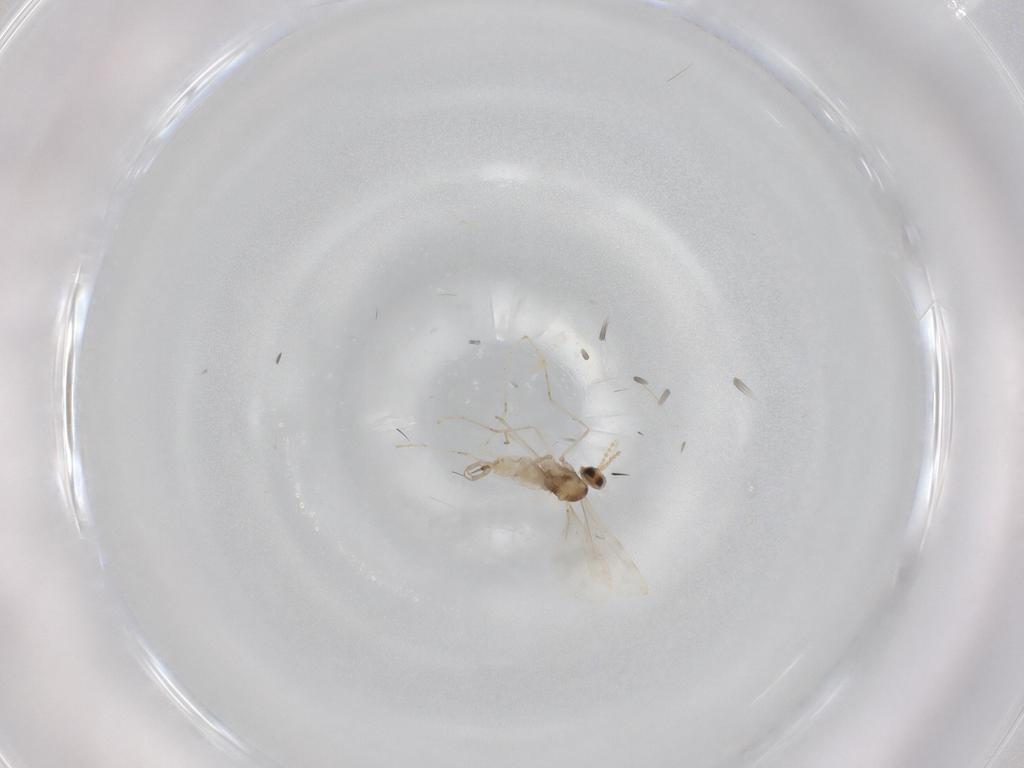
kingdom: Animalia
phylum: Arthropoda
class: Insecta
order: Diptera
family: Cecidomyiidae
